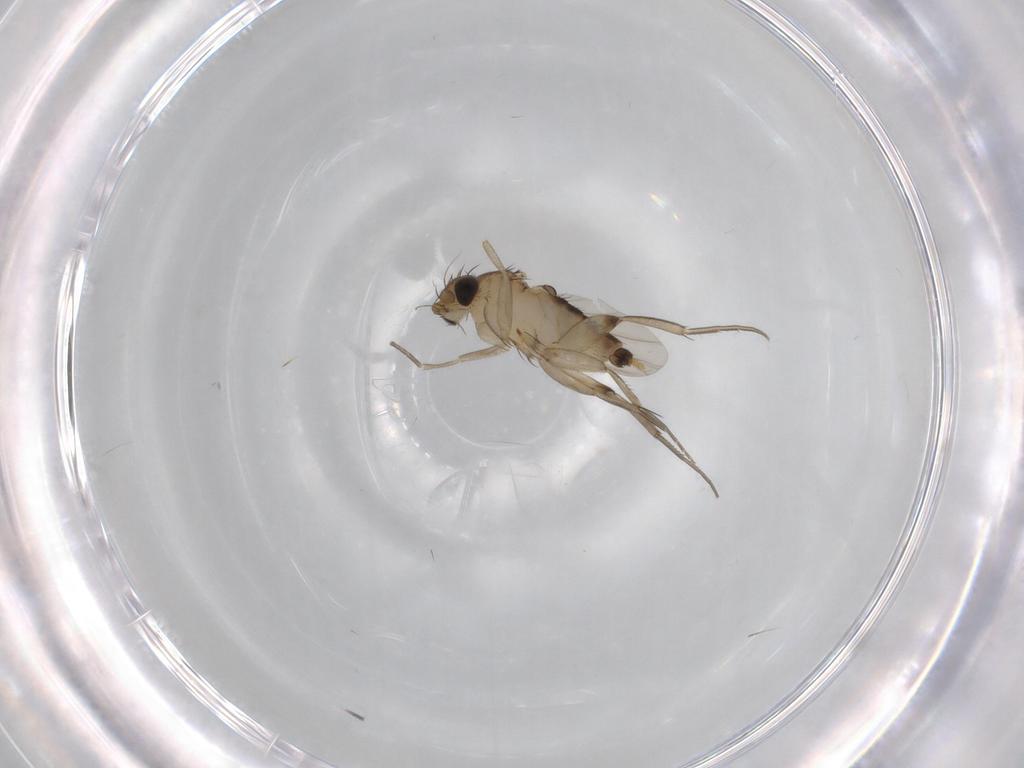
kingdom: Animalia
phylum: Arthropoda
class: Insecta
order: Diptera
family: Phoridae
